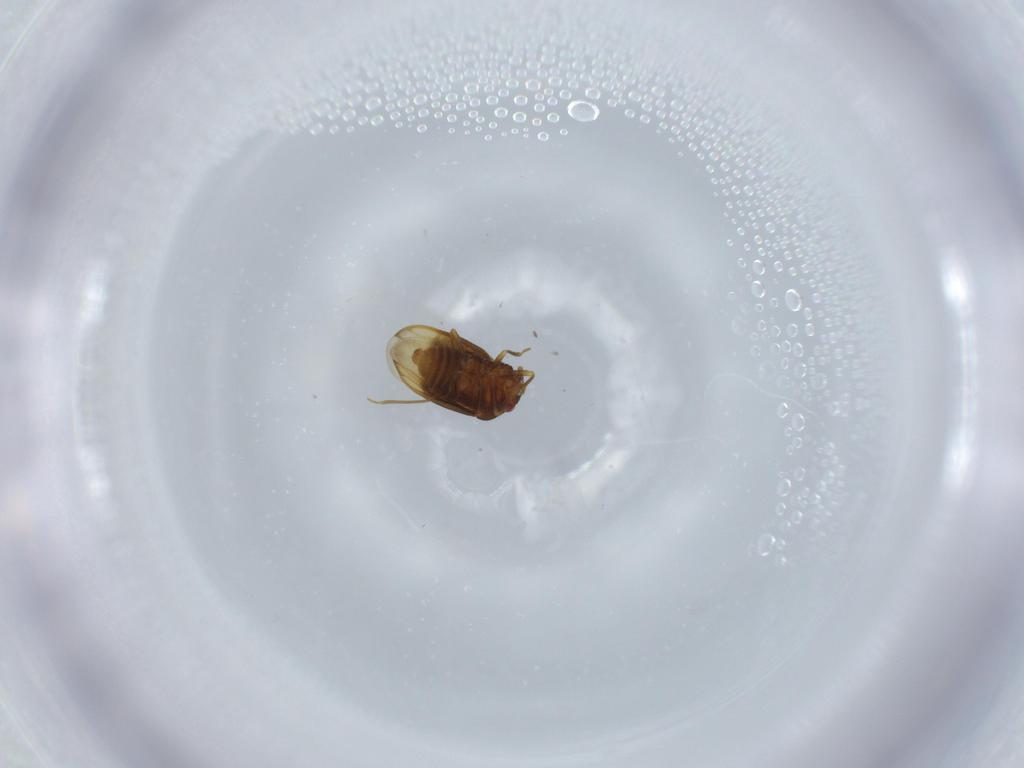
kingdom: Animalia
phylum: Arthropoda
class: Insecta
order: Hemiptera
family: Cicadellidae
